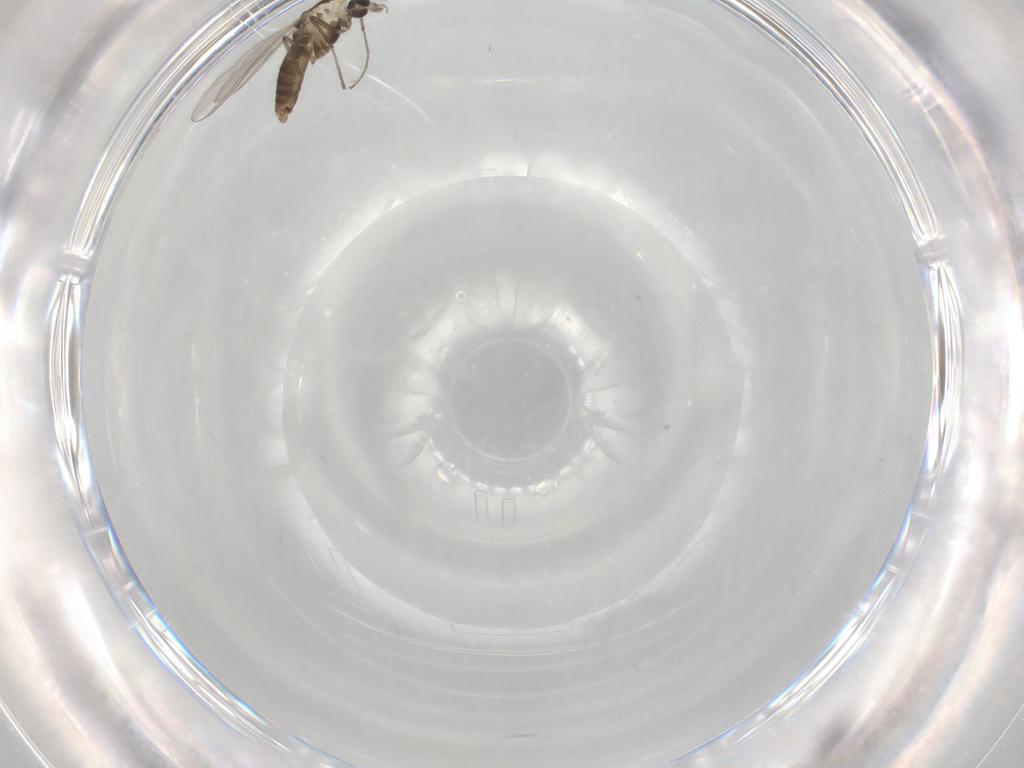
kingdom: Animalia
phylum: Arthropoda
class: Insecta
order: Diptera
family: Chironomidae
